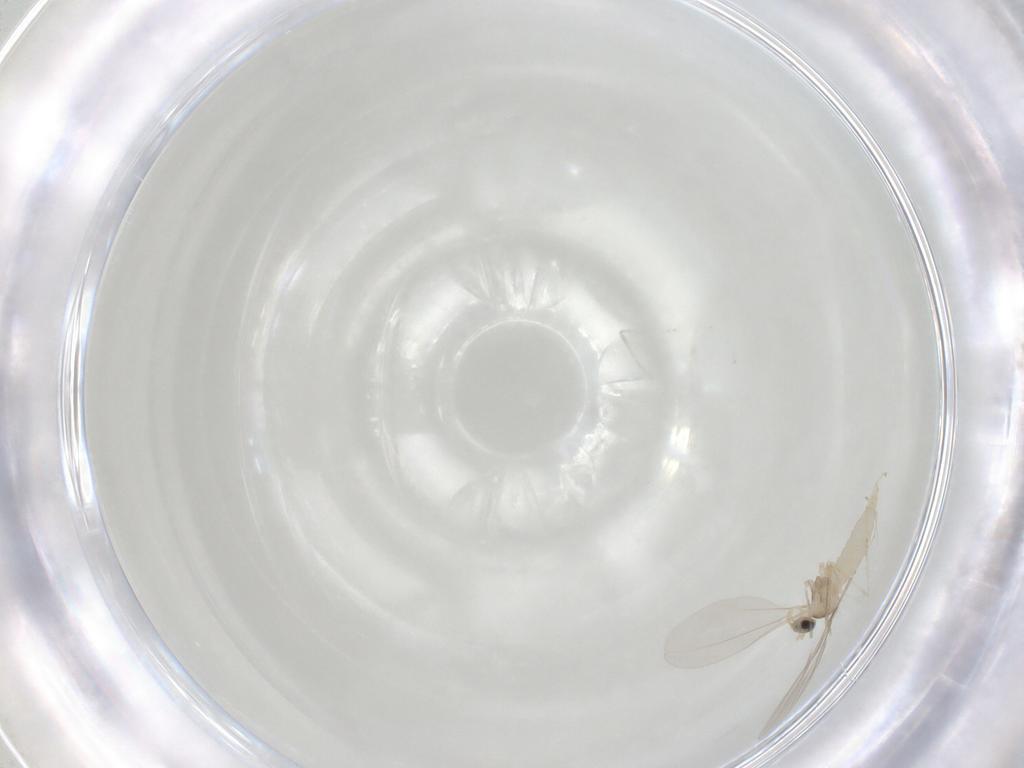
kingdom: Animalia
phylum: Arthropoda
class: Insecta
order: Diptera
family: Chironomidae
